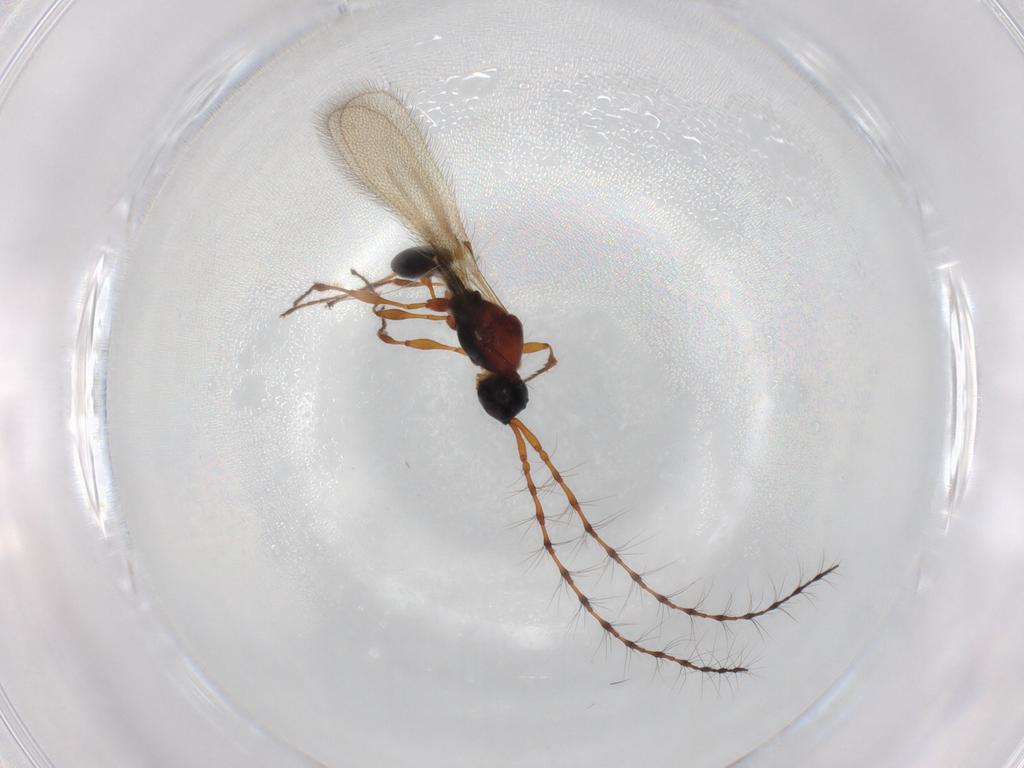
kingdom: Animalia
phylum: Arthropoda
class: Insecta
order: Hymenoptera
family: Diapriidae
